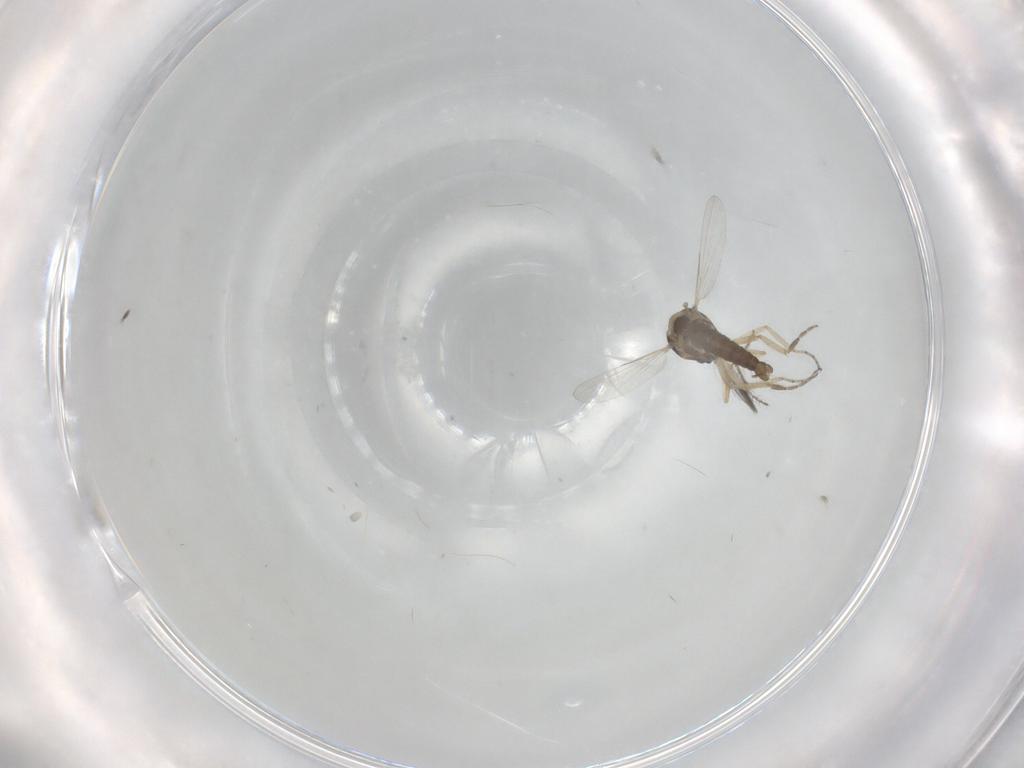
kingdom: Animalia
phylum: Arthropoda
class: Insecta
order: Diptera
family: Ceratopogonidae
